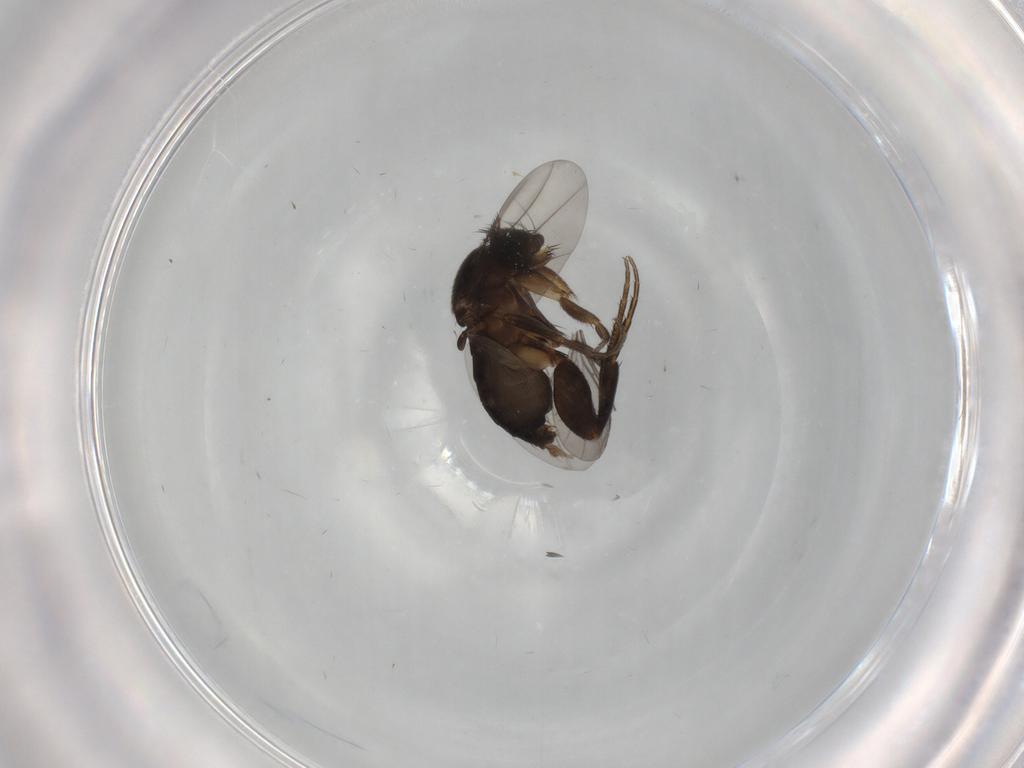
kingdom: Animalia
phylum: Arthropoda
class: Insecta
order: Diptera
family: Phoridae
